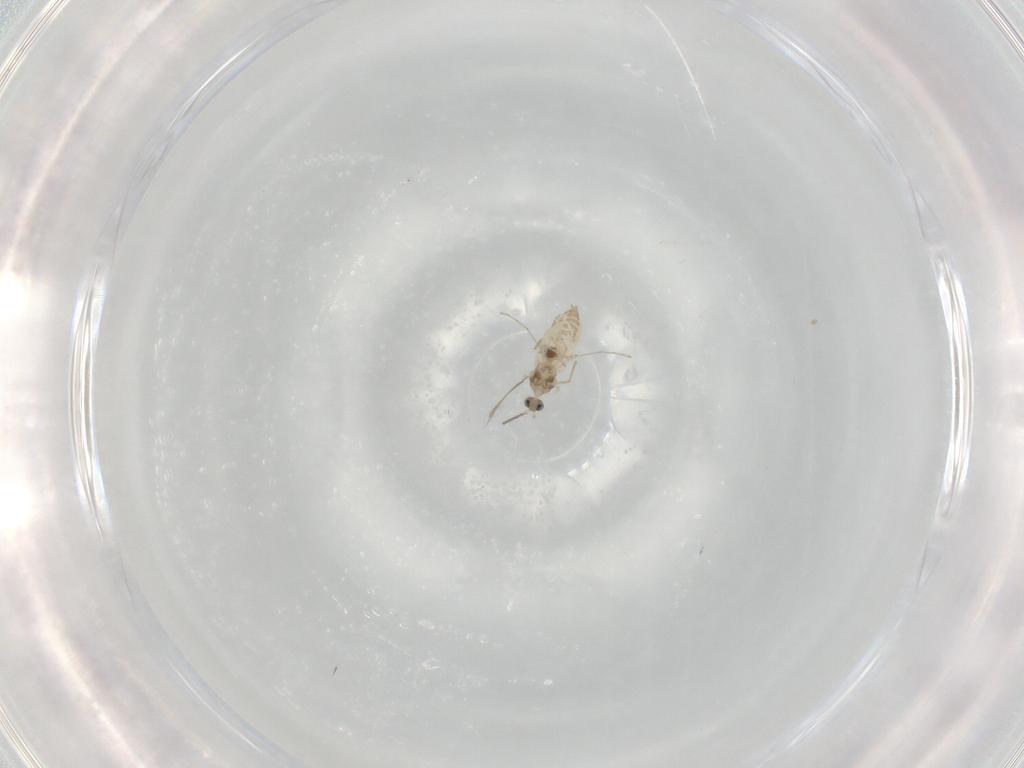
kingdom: Animalia
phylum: Arthropoda
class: Insecta
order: Diptera
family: Cecidomyiidae
